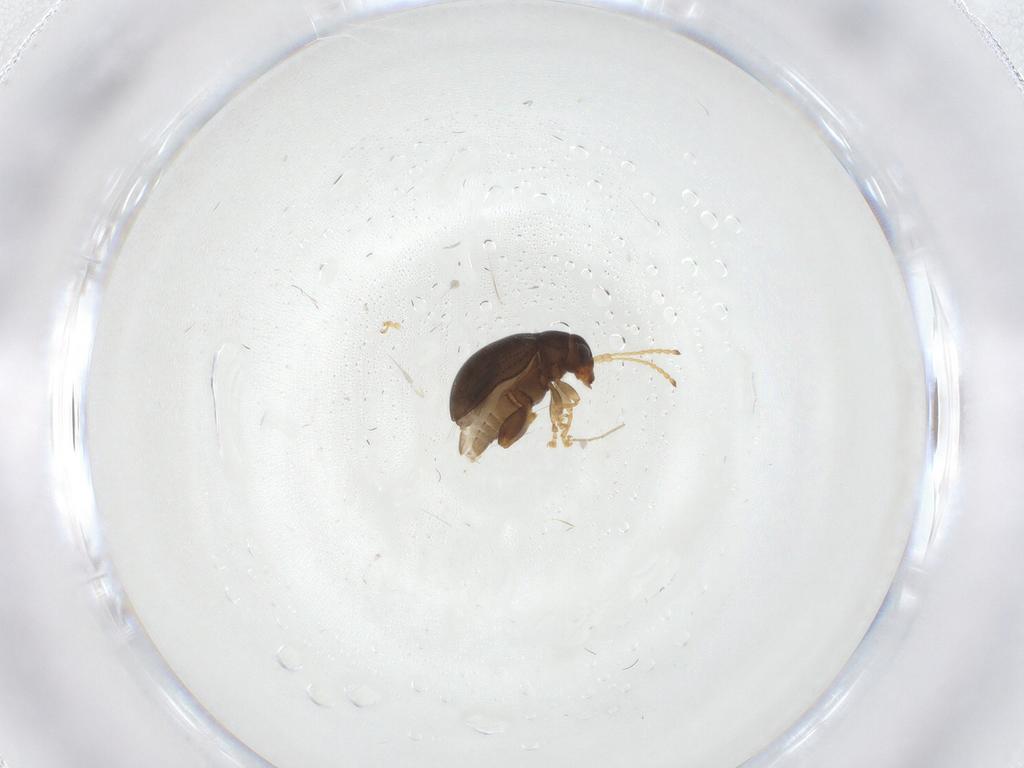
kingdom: Animalia
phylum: Arthropoda
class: Insecta
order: Coleoptera
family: Chrysomelidae
